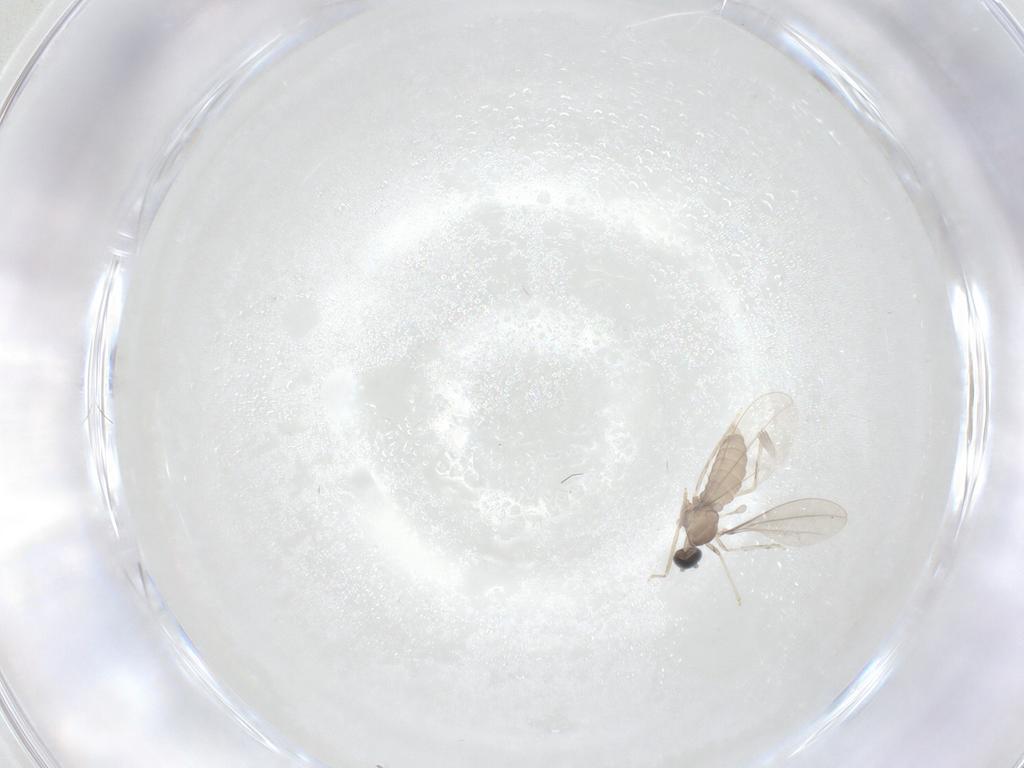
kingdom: Animalia
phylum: Arthropoda
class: Insecta
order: Diptera
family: Cecidomyiidae
